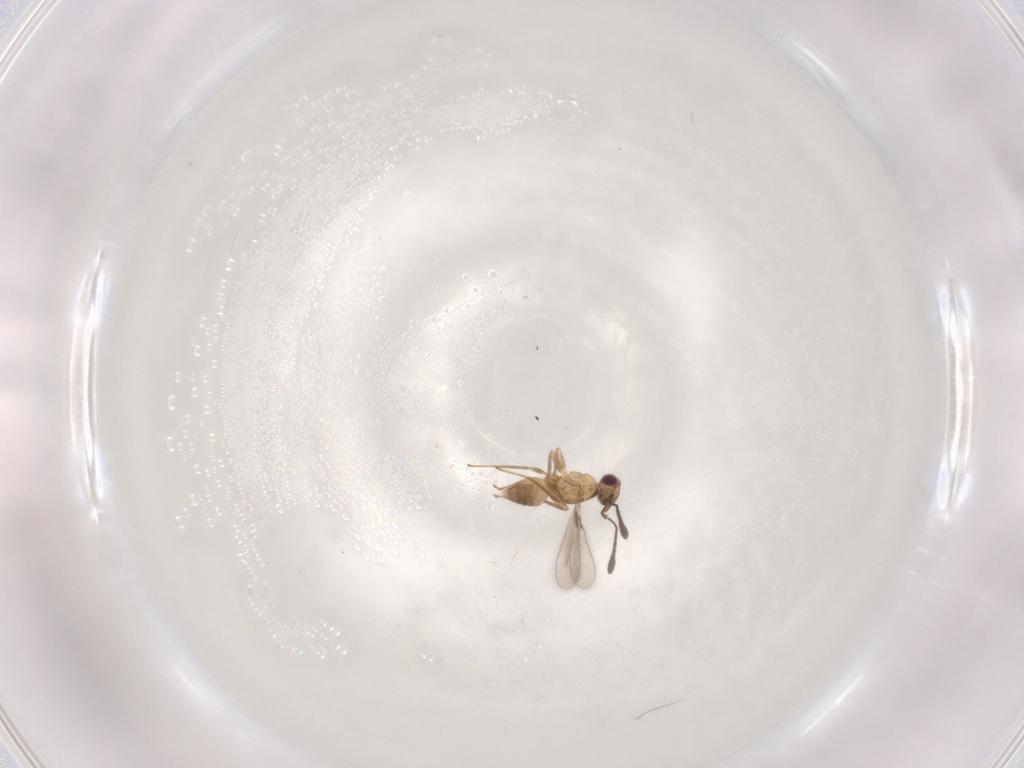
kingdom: Animalia
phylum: Arthropoda
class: Insecta
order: Hymenoptera
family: Mymaridae
